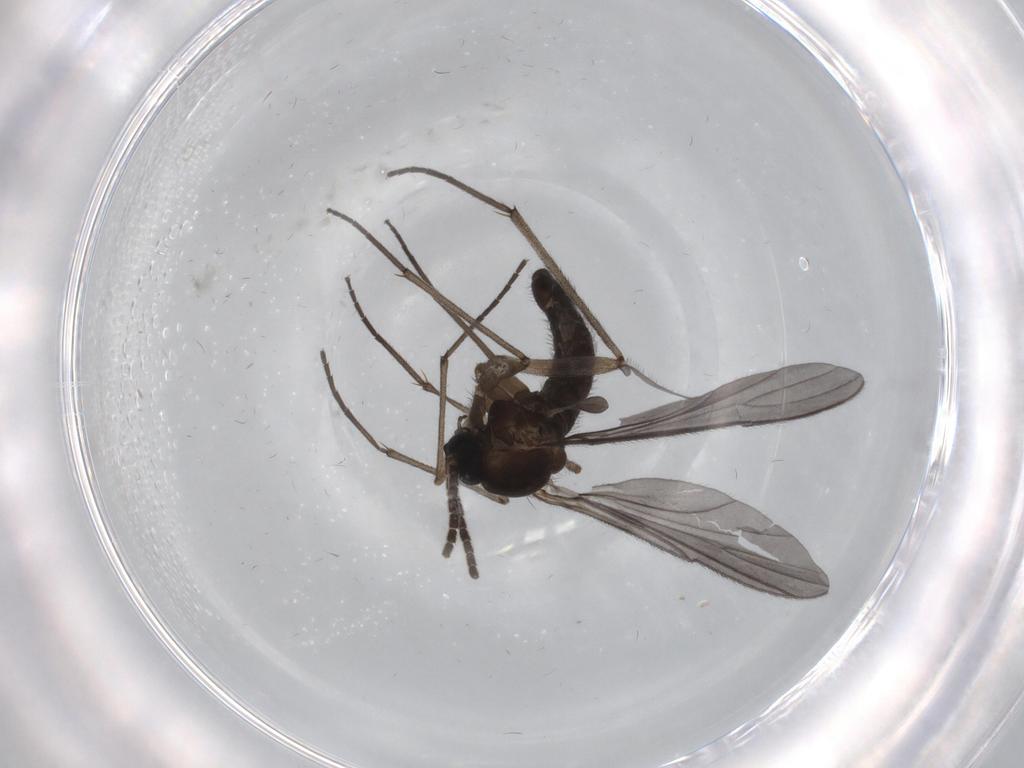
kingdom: Animalia
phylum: Arthropoda
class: Insecta
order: Diptera
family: Sciaridae
